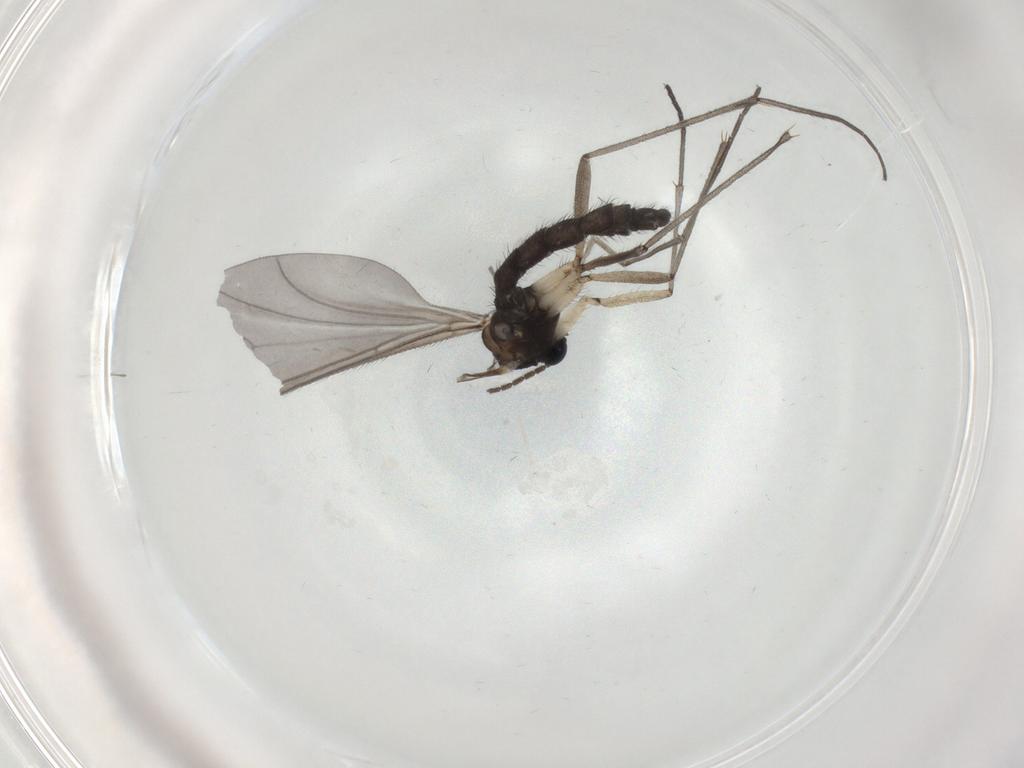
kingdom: Animalia
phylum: Arthropoda
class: Insecta
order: Diptera
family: Sciaridae
